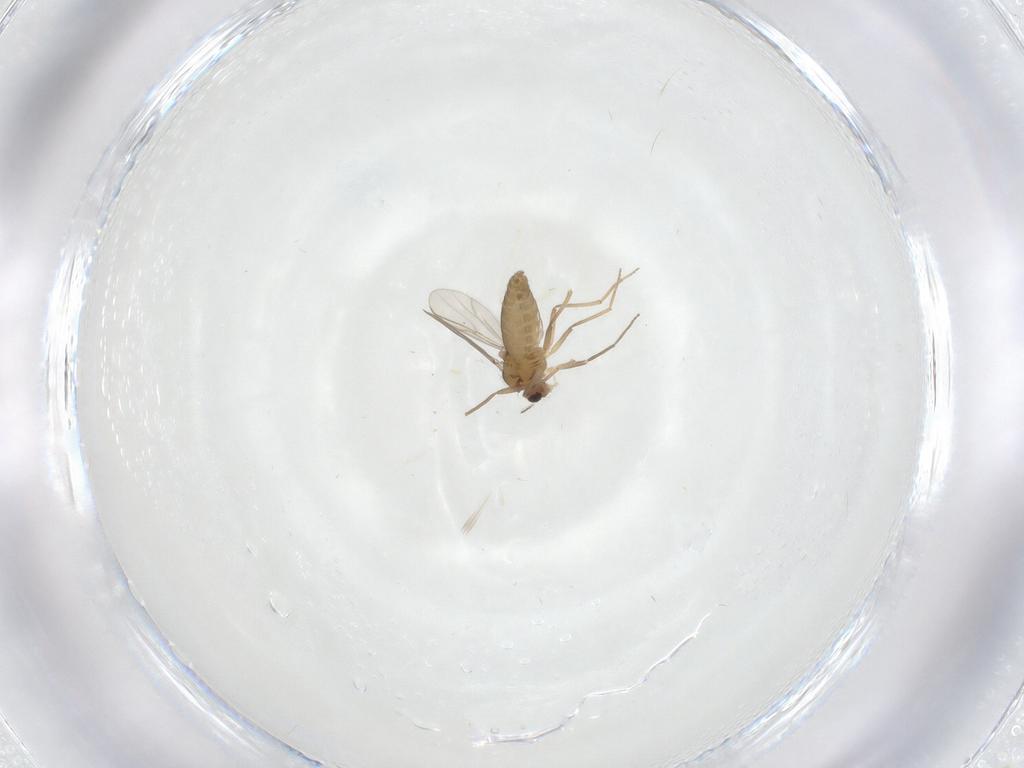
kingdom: Animalia
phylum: Arthropoda
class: Insecta
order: Diptera
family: Chironomidae
